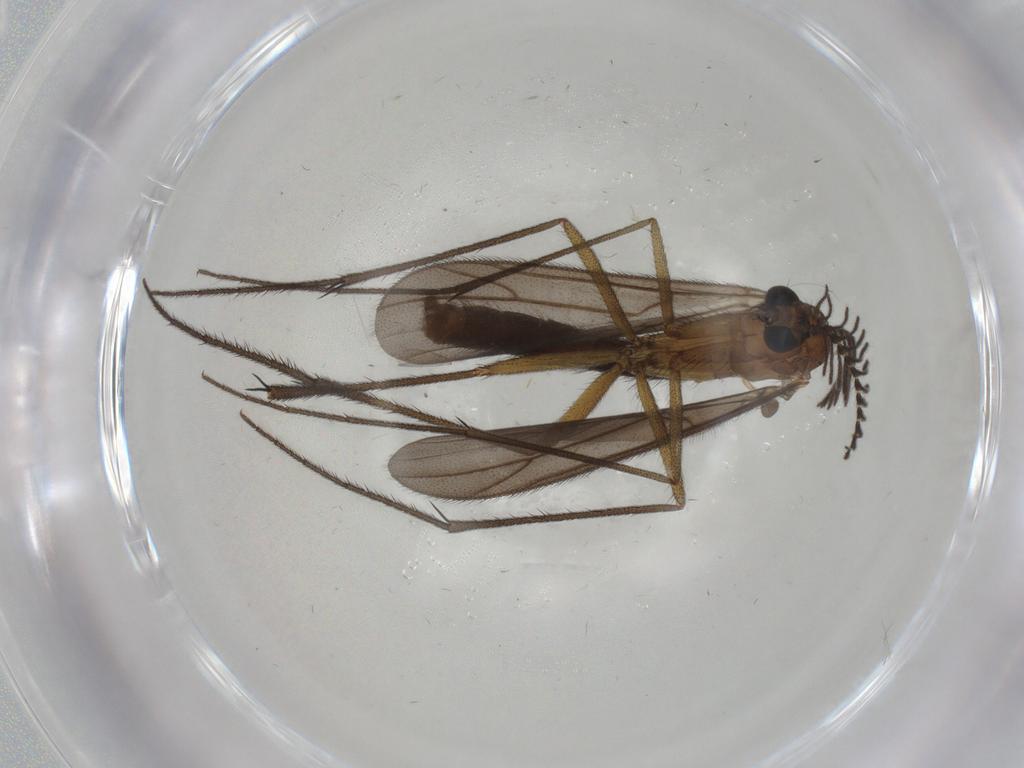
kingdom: Animalia
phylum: Arthropoda
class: Insecta
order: Diptera
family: Ditomyiidae
